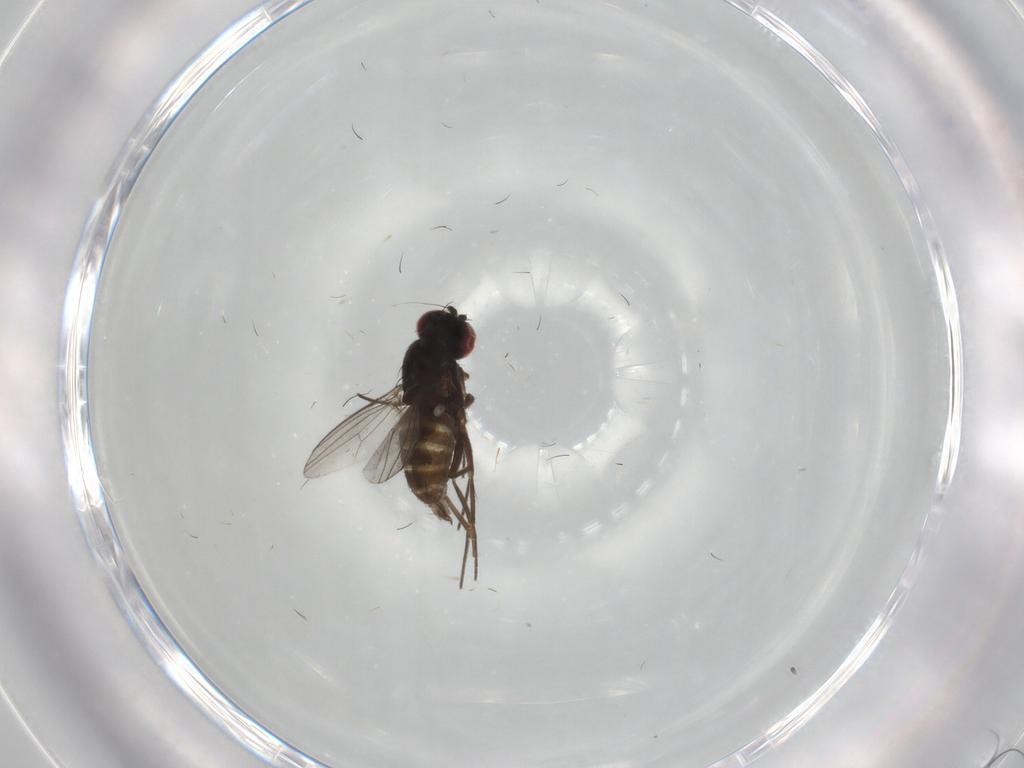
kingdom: Animalia
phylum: Arthropoda
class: Insecta
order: Diptera
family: Dolichopodidae
